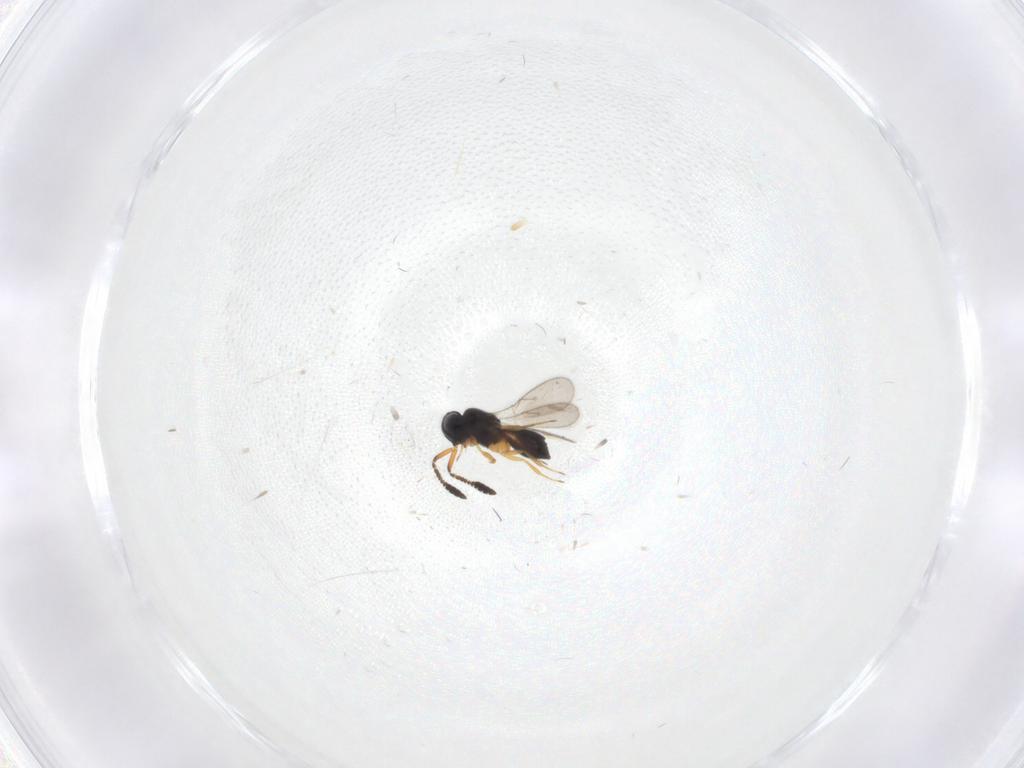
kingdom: Animalia
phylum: Arthropoda
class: Insecta
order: Hymenoptera
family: Scelionidae
